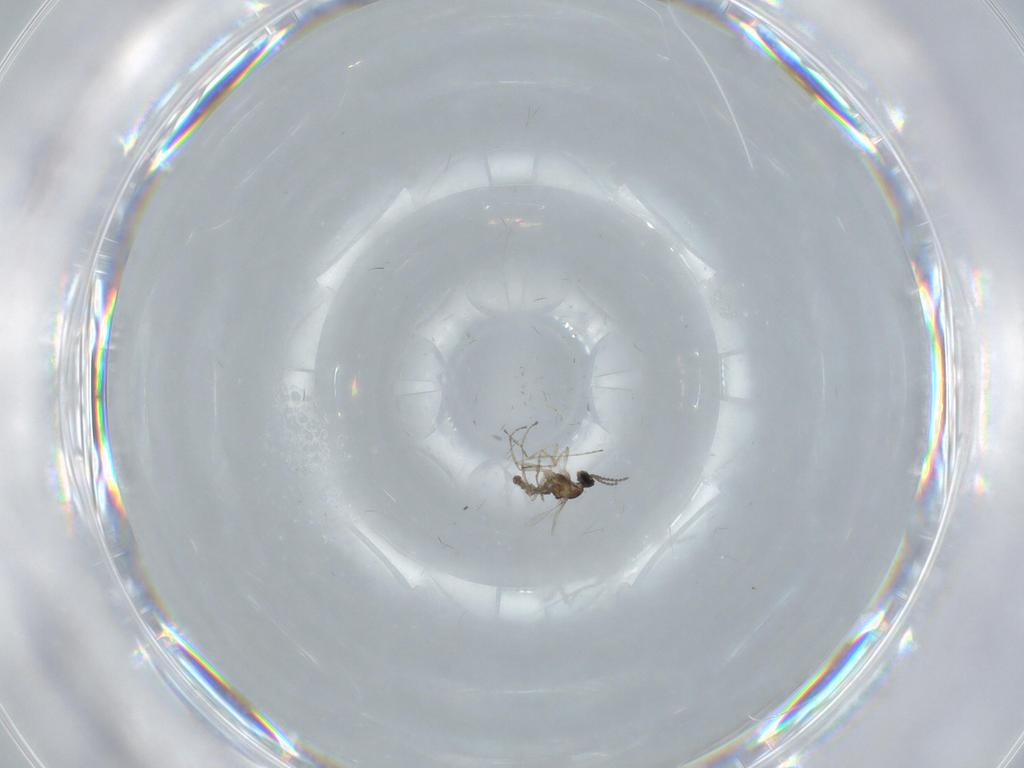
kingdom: Animalia
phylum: Arthropoda
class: Insecta
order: Diptera
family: Cecidomyiidae
